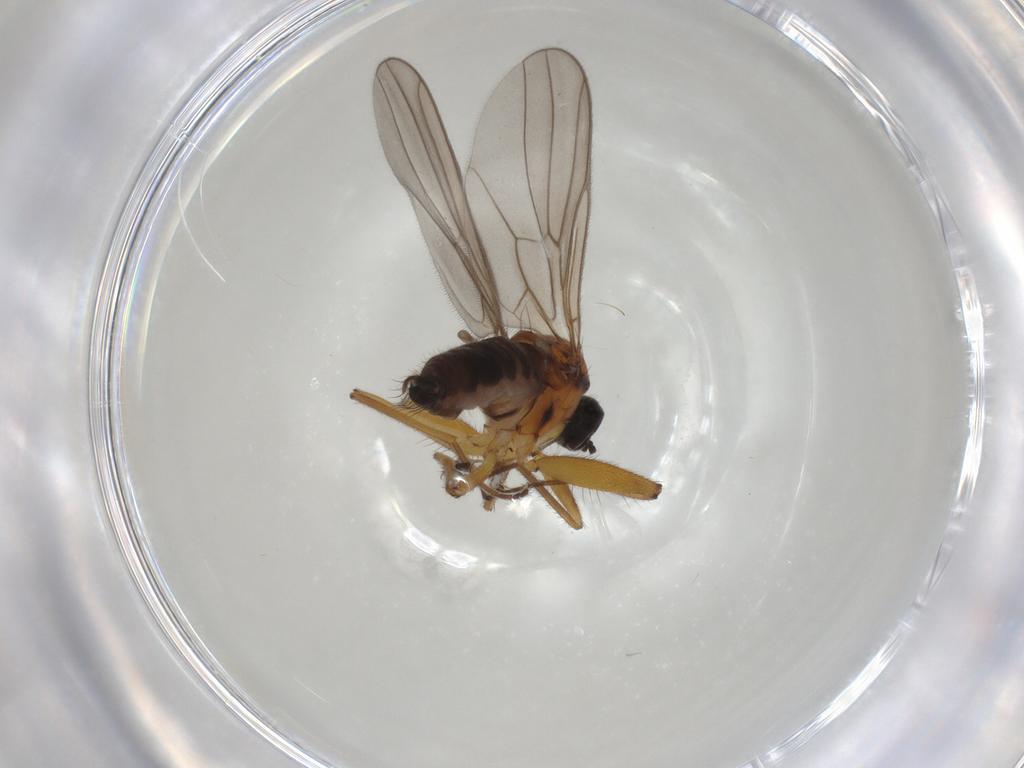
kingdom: Animalia
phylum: Arthropoda
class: Insecta
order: Diptera
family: Hybotidae
